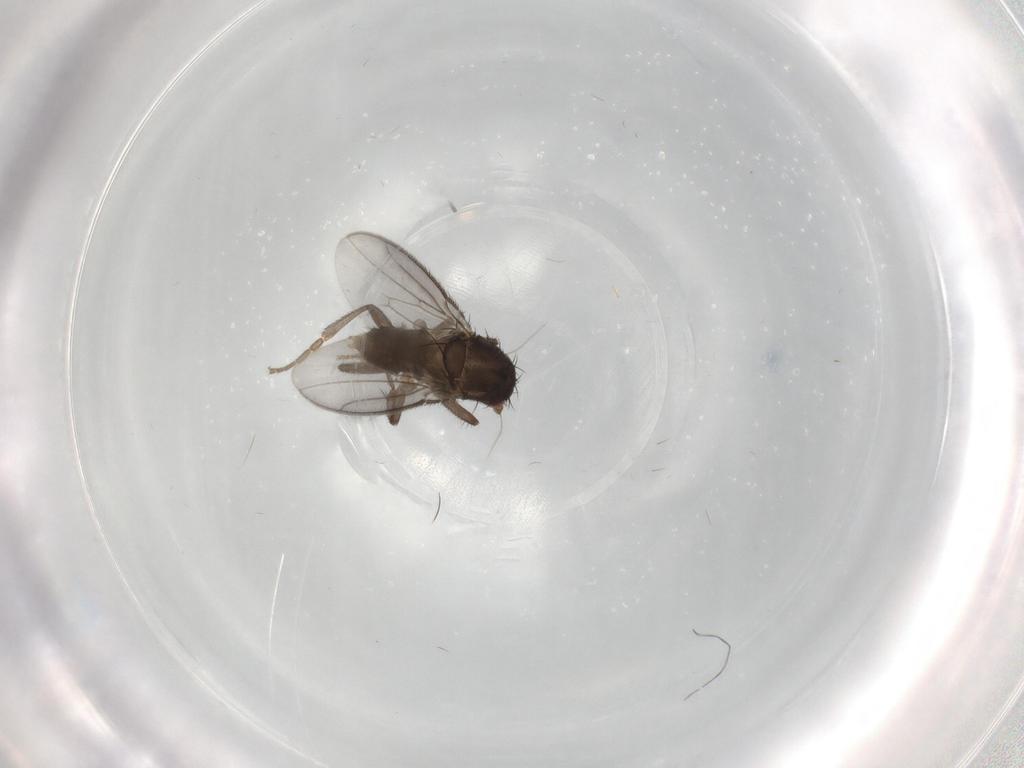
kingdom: Animalia
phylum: Arthropoda
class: Insecta
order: Diptera
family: Sphaeroceridae
